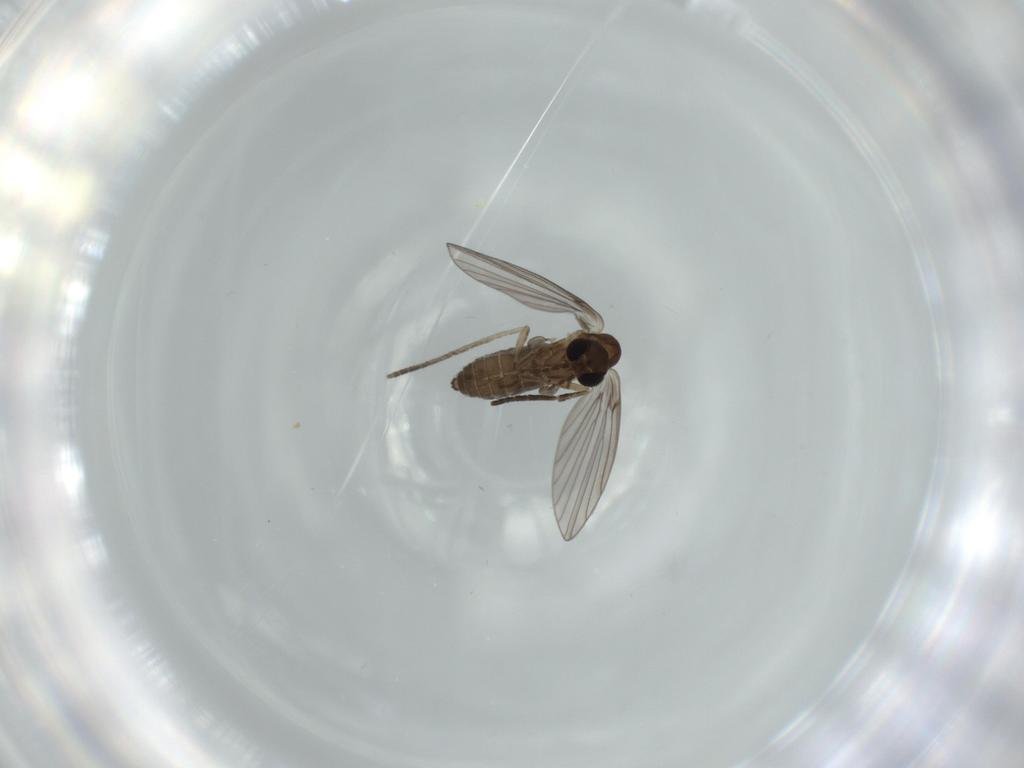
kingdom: Animalia
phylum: Arthropoda
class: Insecta
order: Diptera
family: Psychodidae
